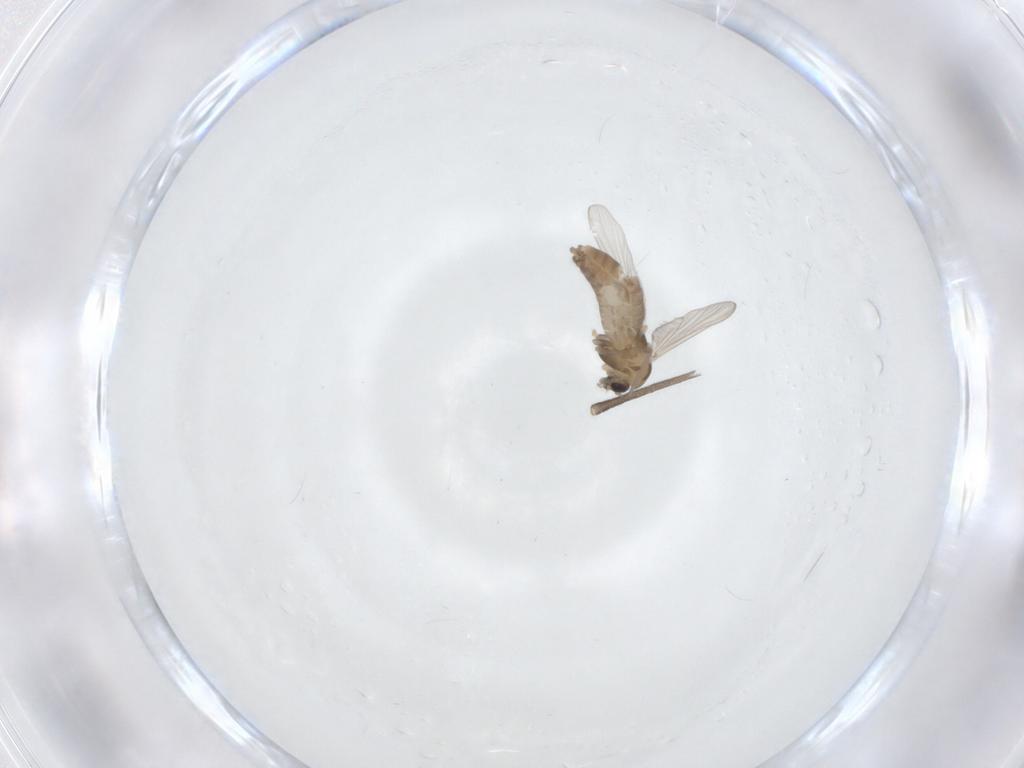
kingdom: Animalia
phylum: Arthropoda
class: Insecta
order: Diptera
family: Chironomidae
